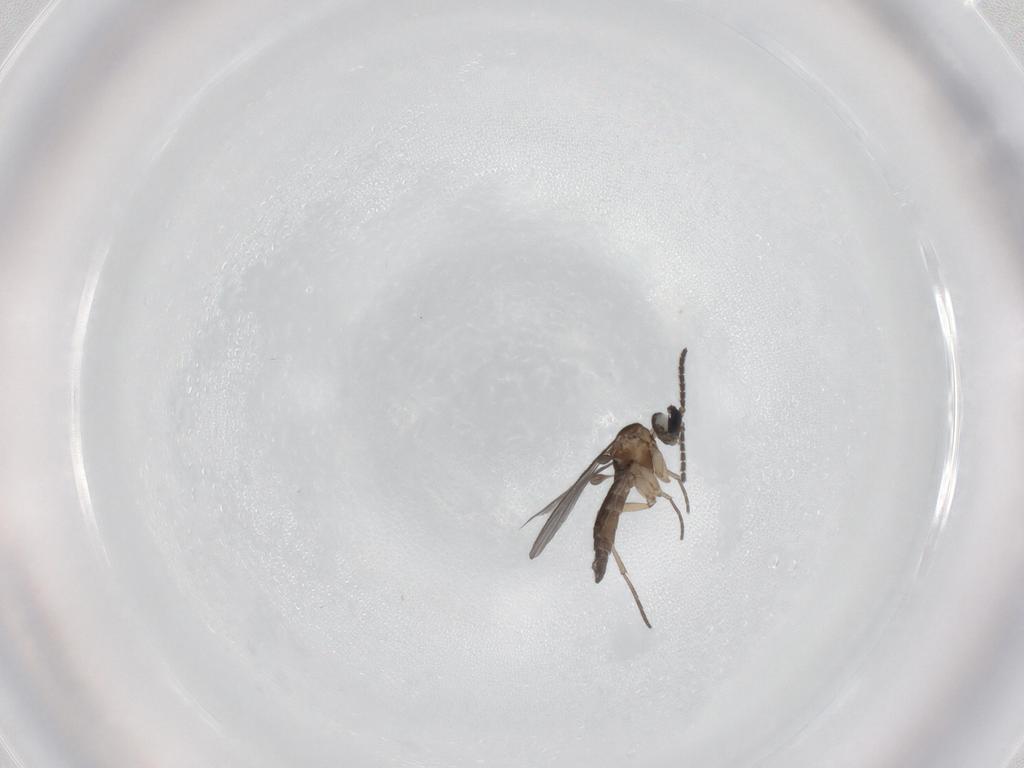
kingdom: Animalia
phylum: Arthropoda
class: Insecta
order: Diptera
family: Sciaridae
